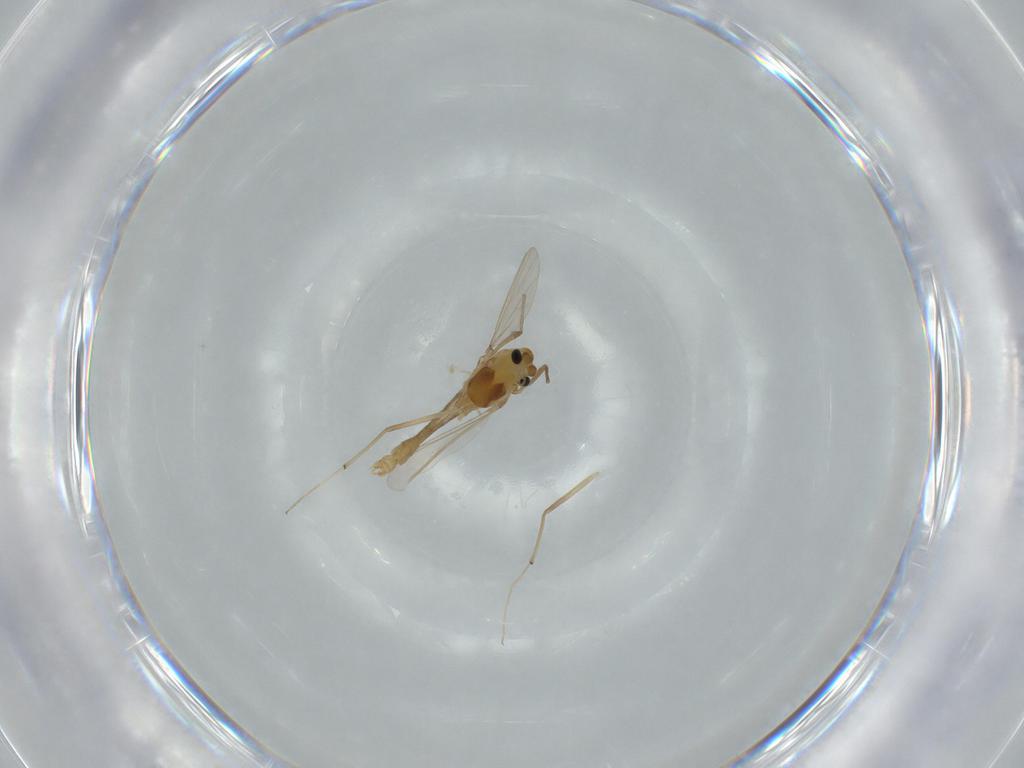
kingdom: Animalia
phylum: Arthropoda
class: Insecta
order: Diptera
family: Chironomidae
